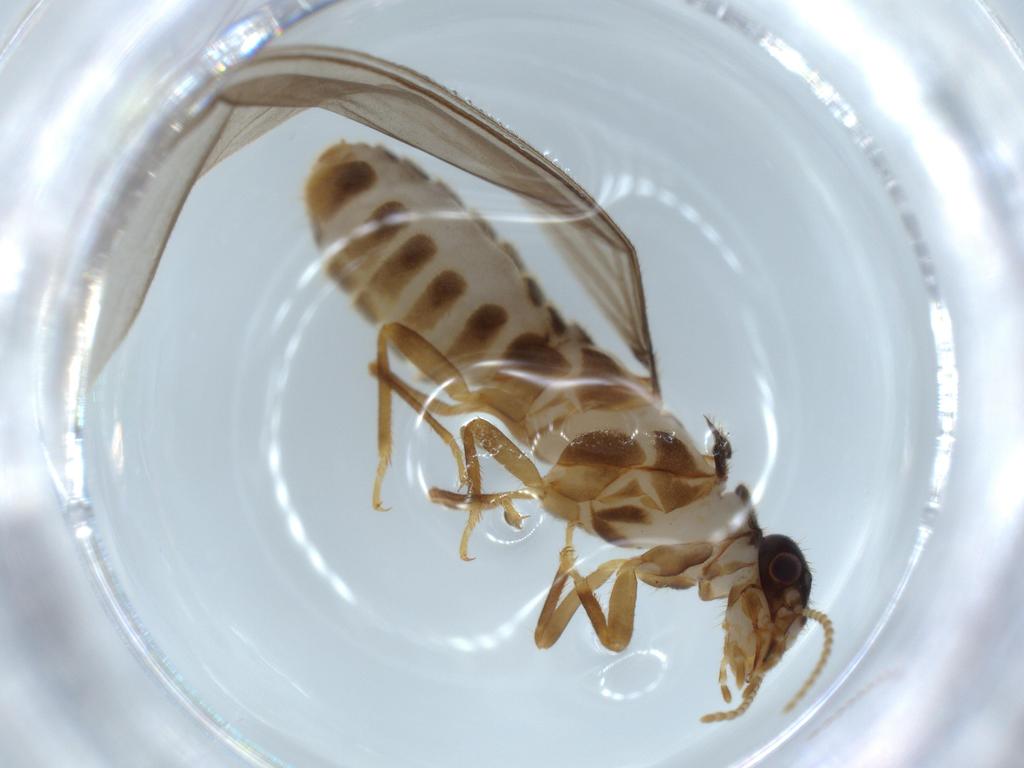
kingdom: Animalia
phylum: Arthropoda
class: Insecta
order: Blattodea
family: Termitidae
